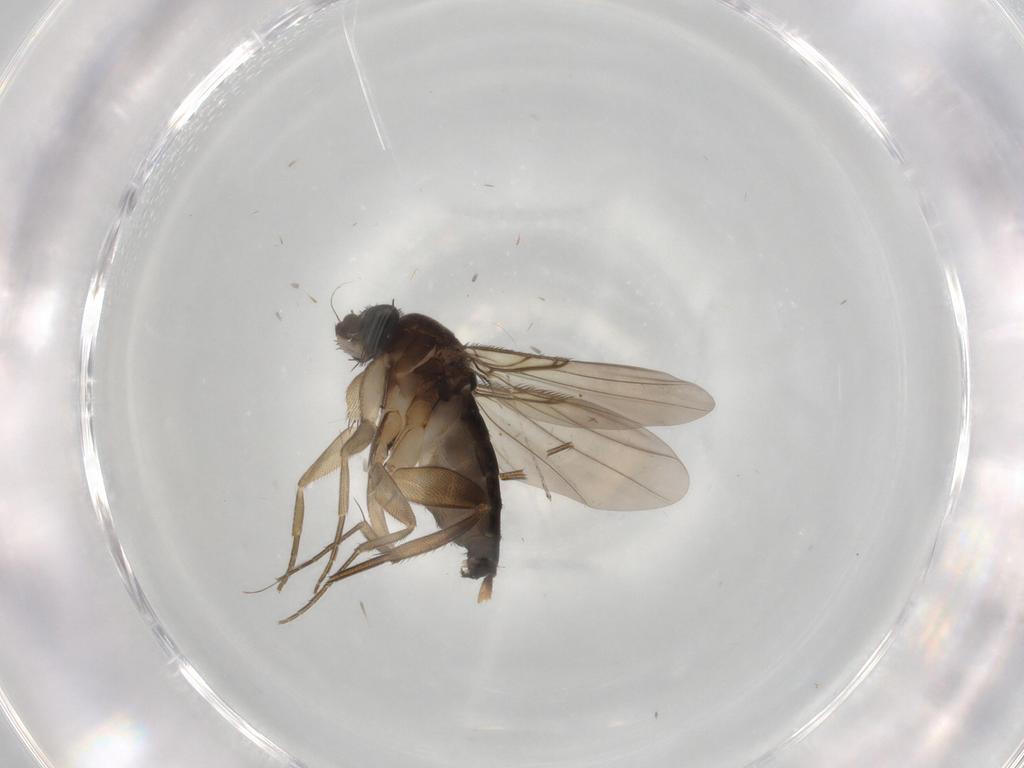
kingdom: Animalia
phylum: Arthropoda
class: Insecta
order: Diptera
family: Phoridae
